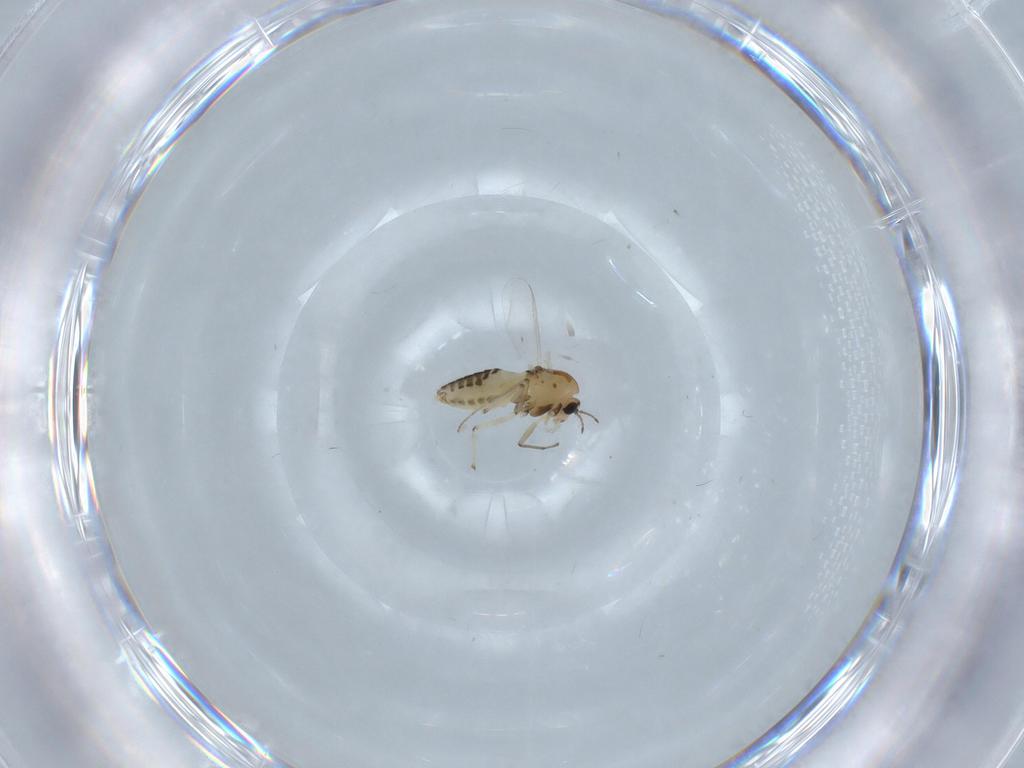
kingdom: Animalia
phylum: Arthropoda
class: Insecta
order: Diptera
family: Chironomidae
